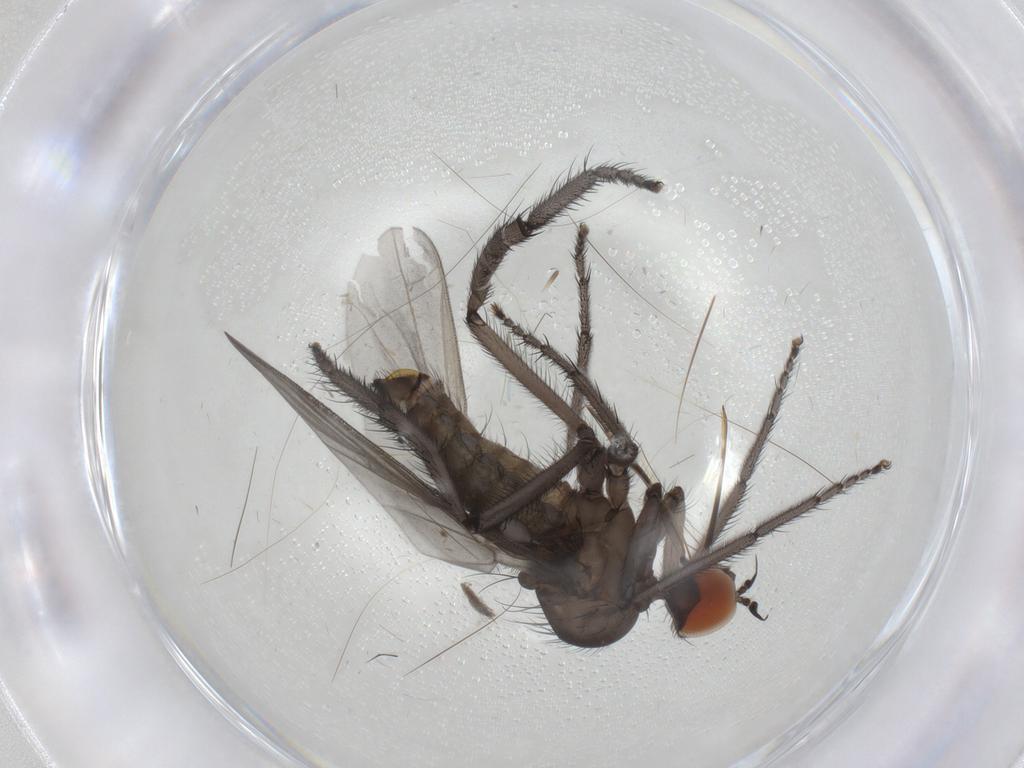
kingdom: Animalia
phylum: Arthropoda
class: Insecta
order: Diptera
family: Empididae
